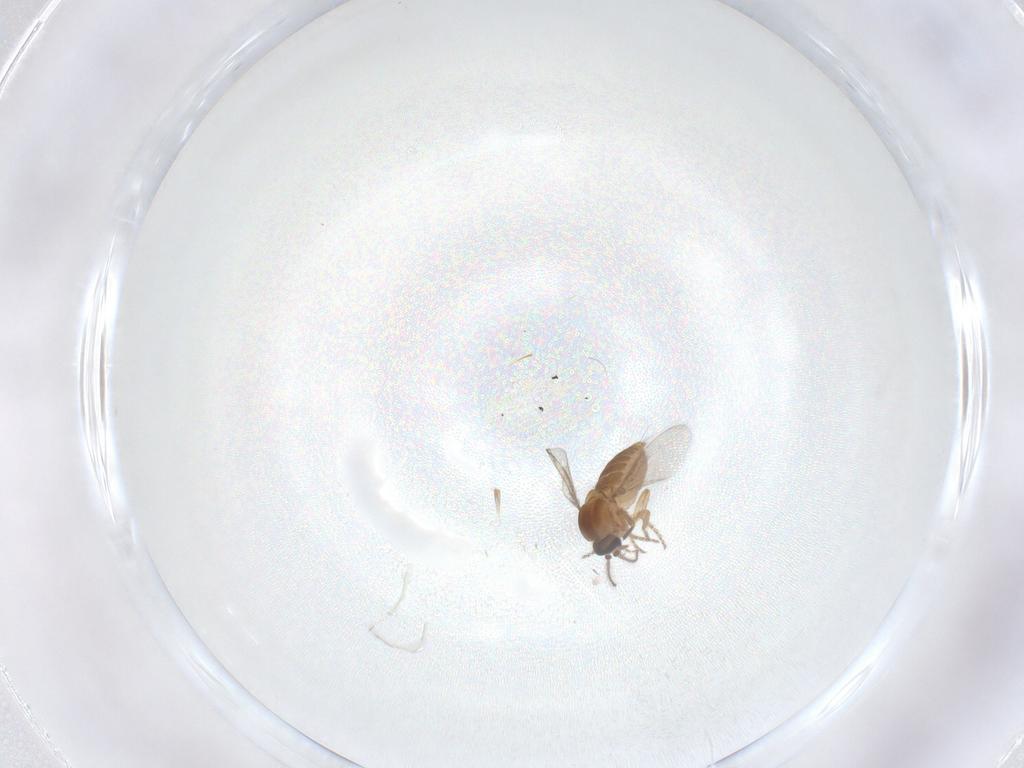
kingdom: Animalia
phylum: Arthropoda
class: Insecta
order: Diptera
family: Ceratopogonidae
